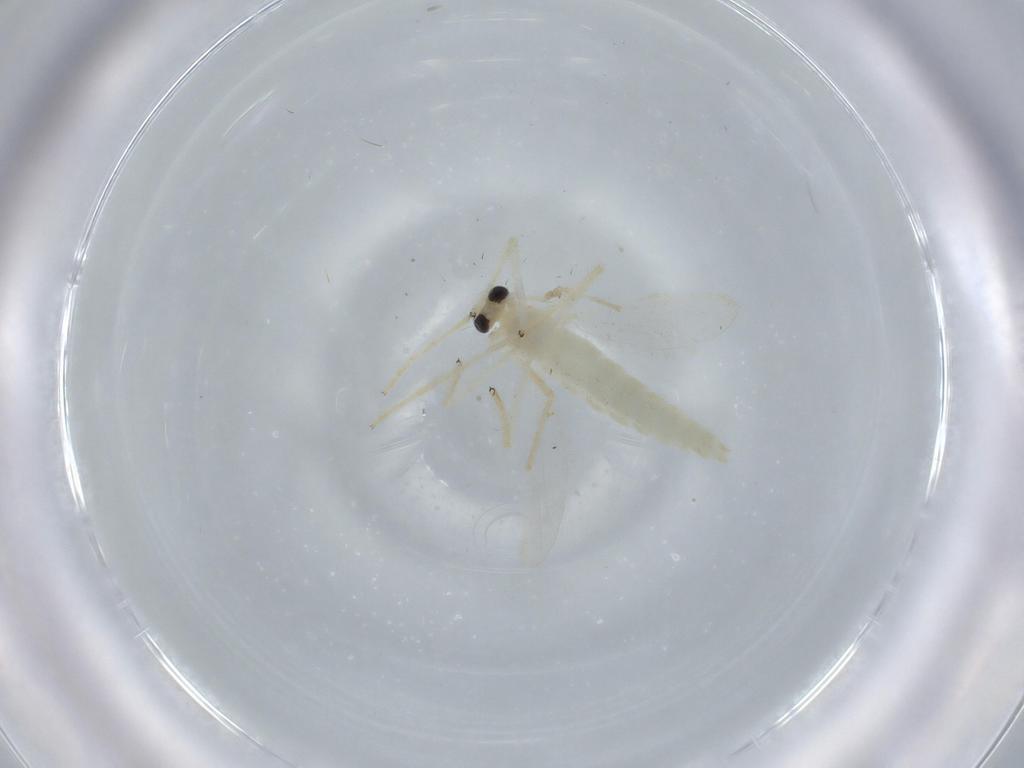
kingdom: Animalia
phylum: Arthropoda
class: Insecta
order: Diptera
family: Chironomidae
